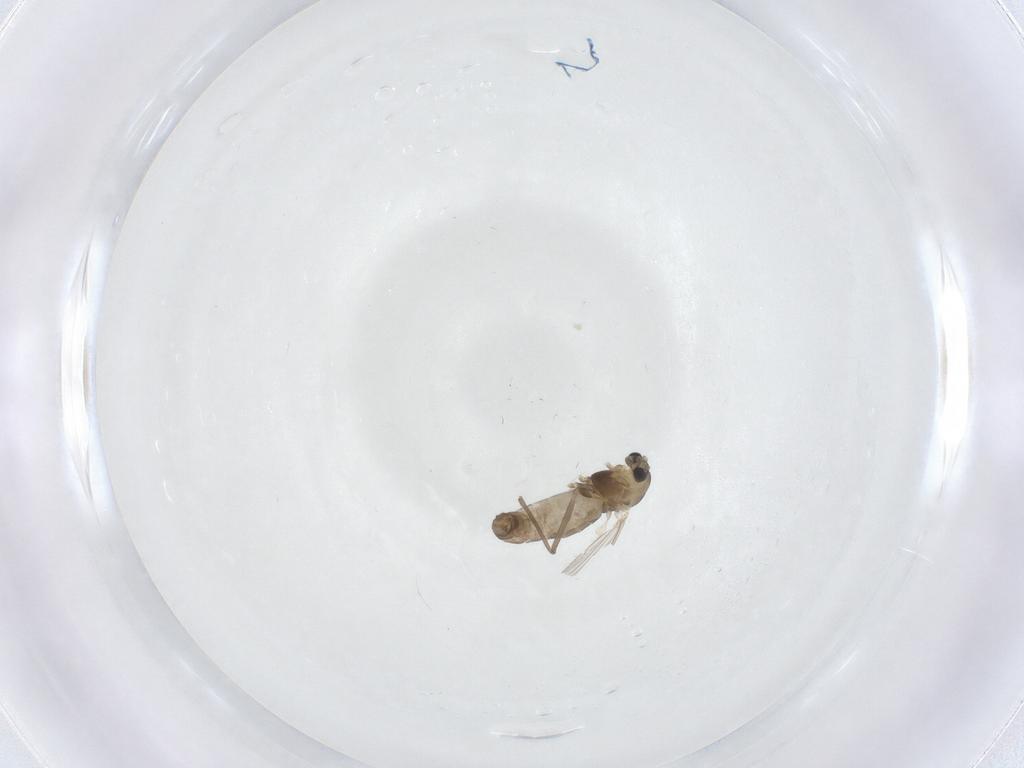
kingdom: Animalia
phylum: Arthropoda
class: Insecta
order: Diptera
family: Chironomidae
